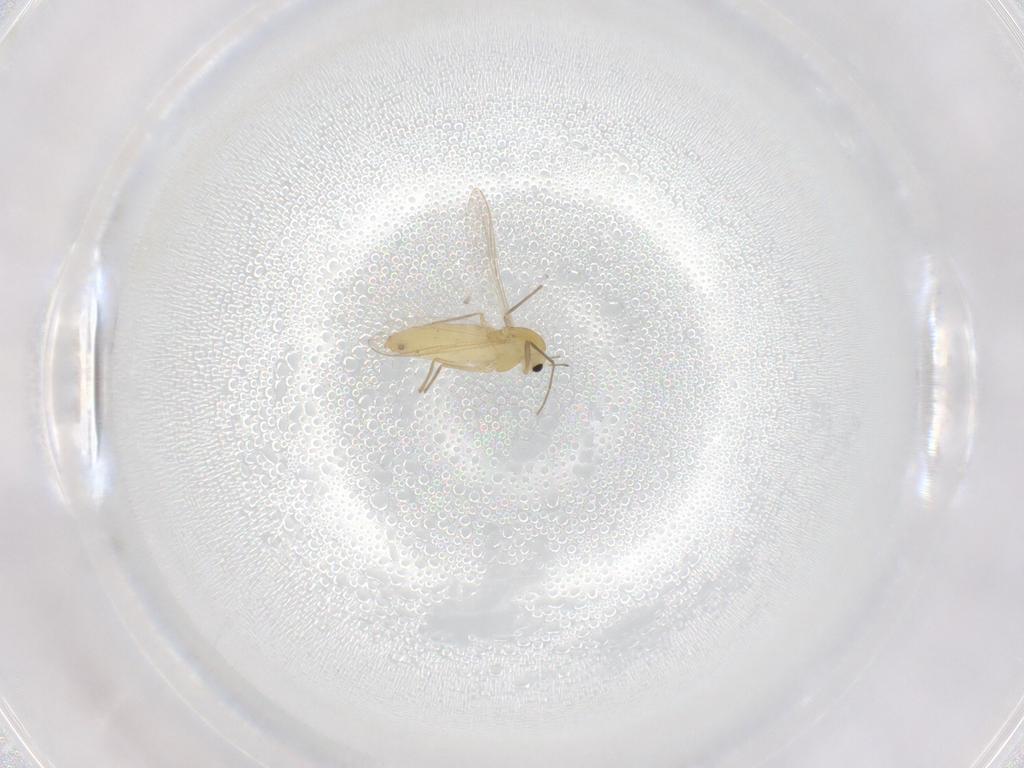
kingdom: Animalia
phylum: Arthropoda
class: Insecta
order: Diptera
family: Chironomidae
